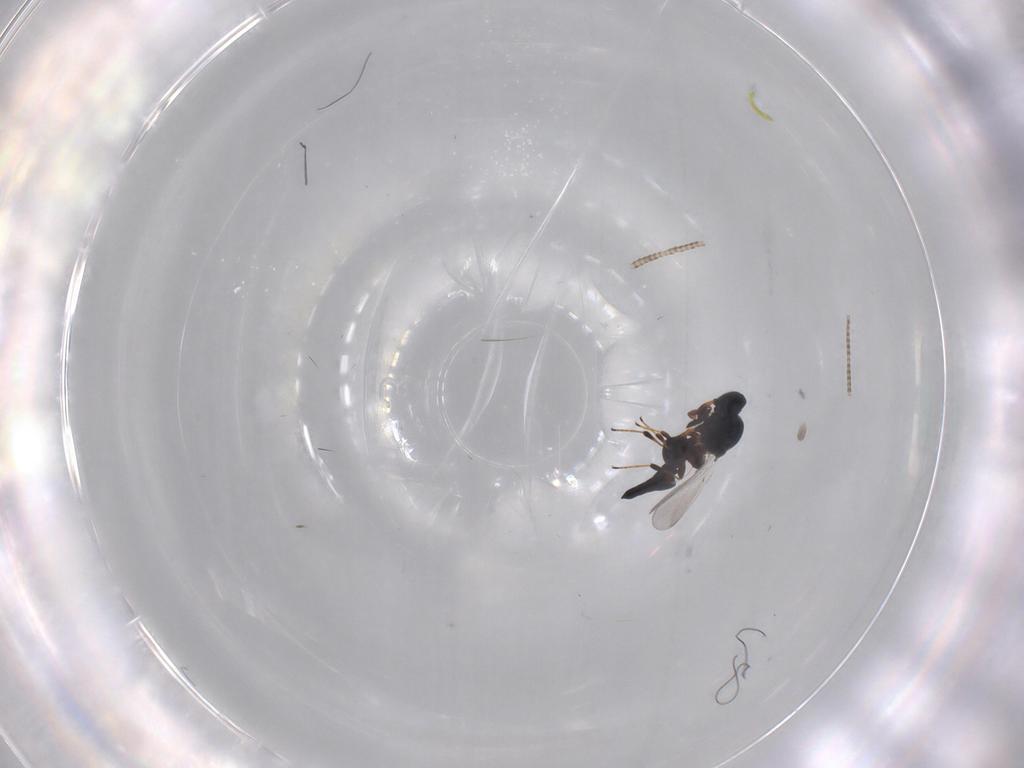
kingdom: Animalia
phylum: Arthropoda
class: Insecta
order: Hymenoptera
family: Platygastridae
